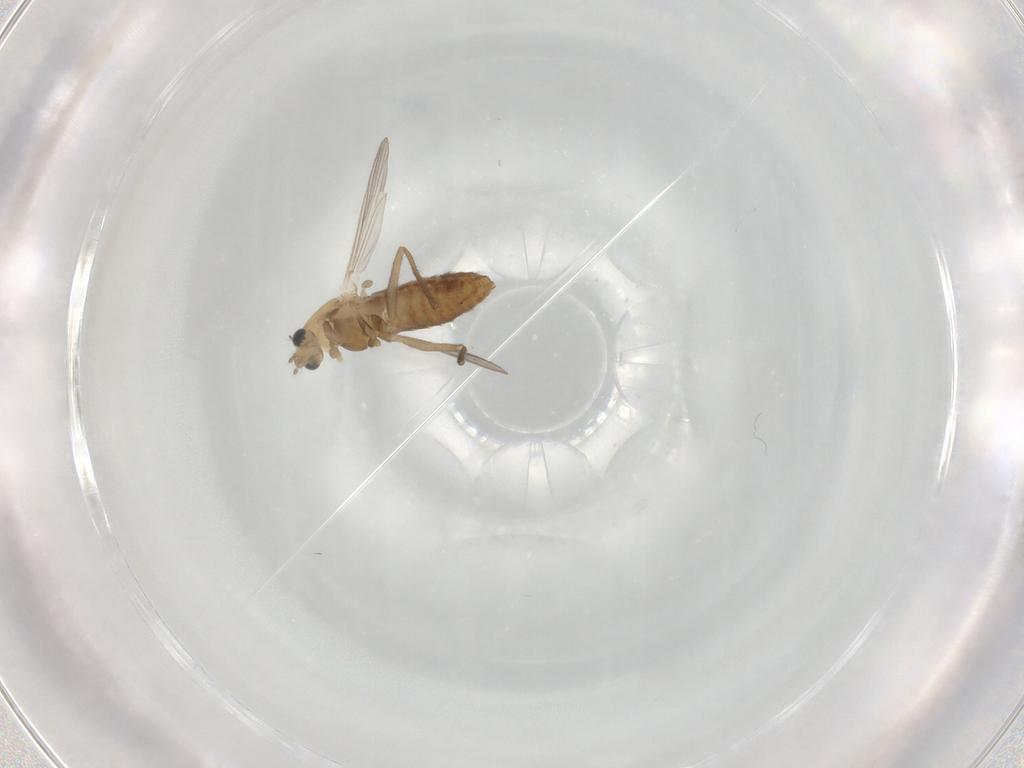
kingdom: Animalia
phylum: Arthropoda
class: Insecta
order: Diptera
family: Chironomidae
